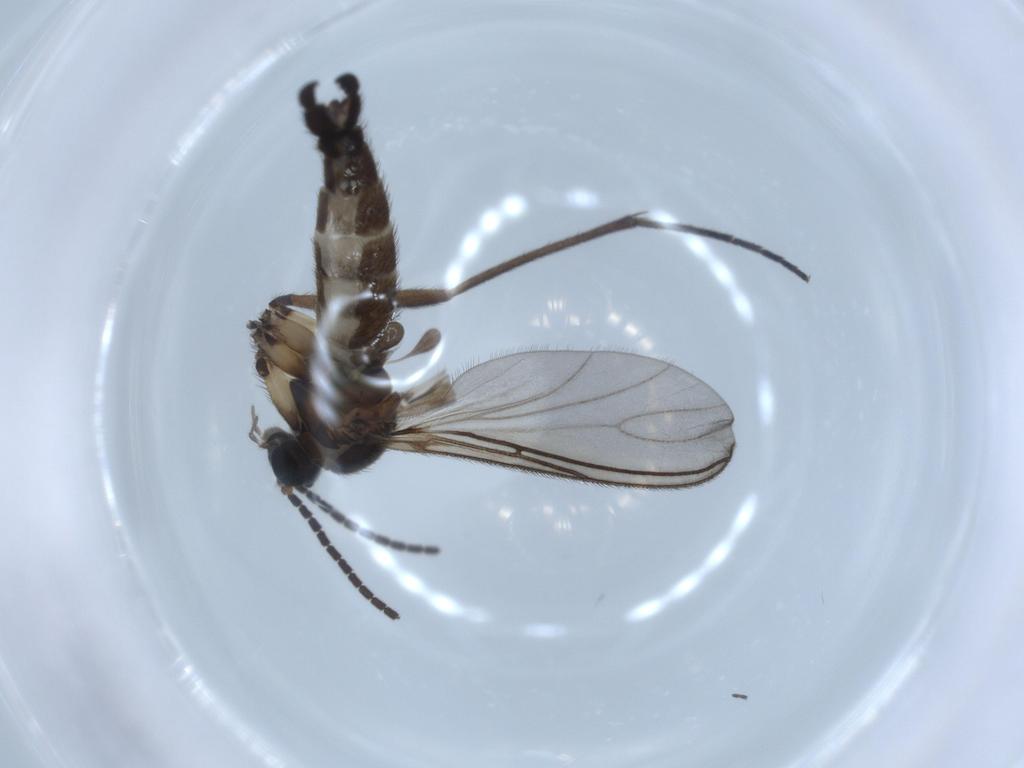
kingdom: Animalia
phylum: Arthropoda
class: Insecta
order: Diptera
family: Sciaridae
